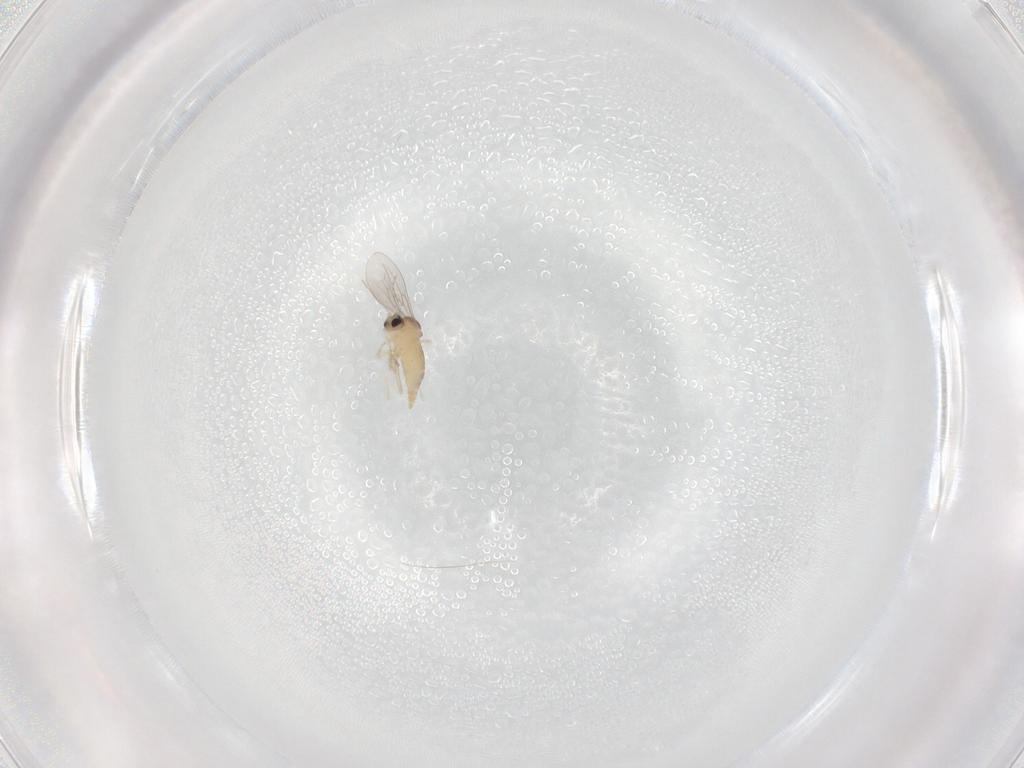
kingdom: Animalia
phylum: Arthropoda
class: Insecta
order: Diptera
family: Cecidomyiidae
